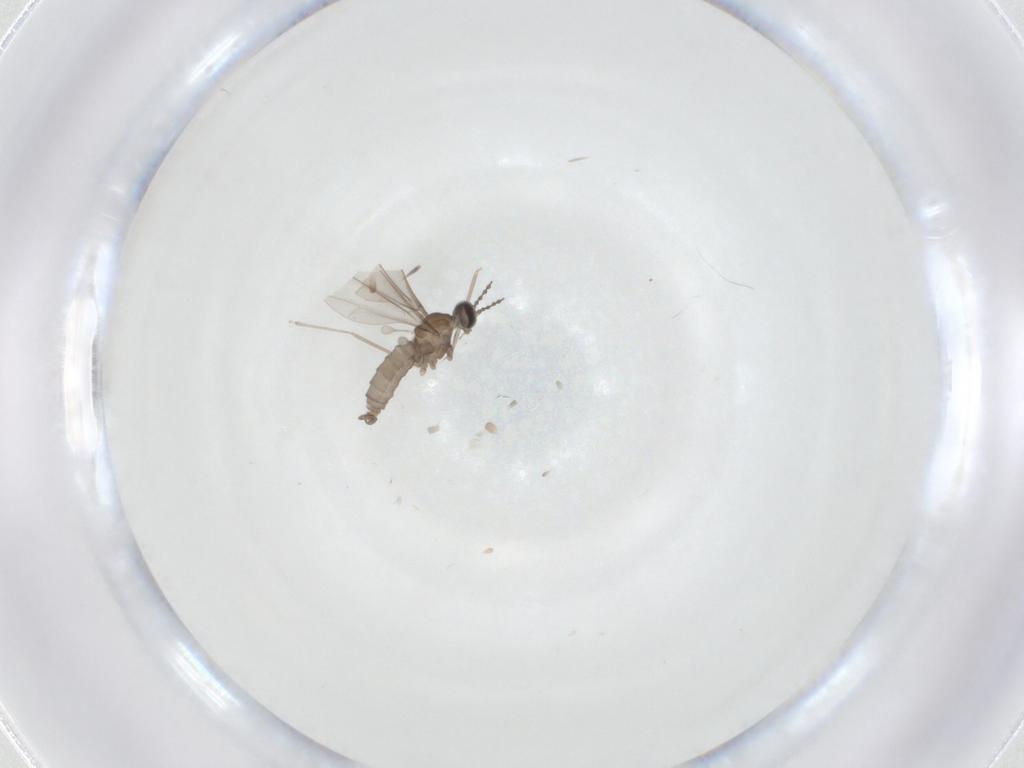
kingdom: Animalia
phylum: Arthropoda
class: Insecta
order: Diptera
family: Cecidomyiidae
